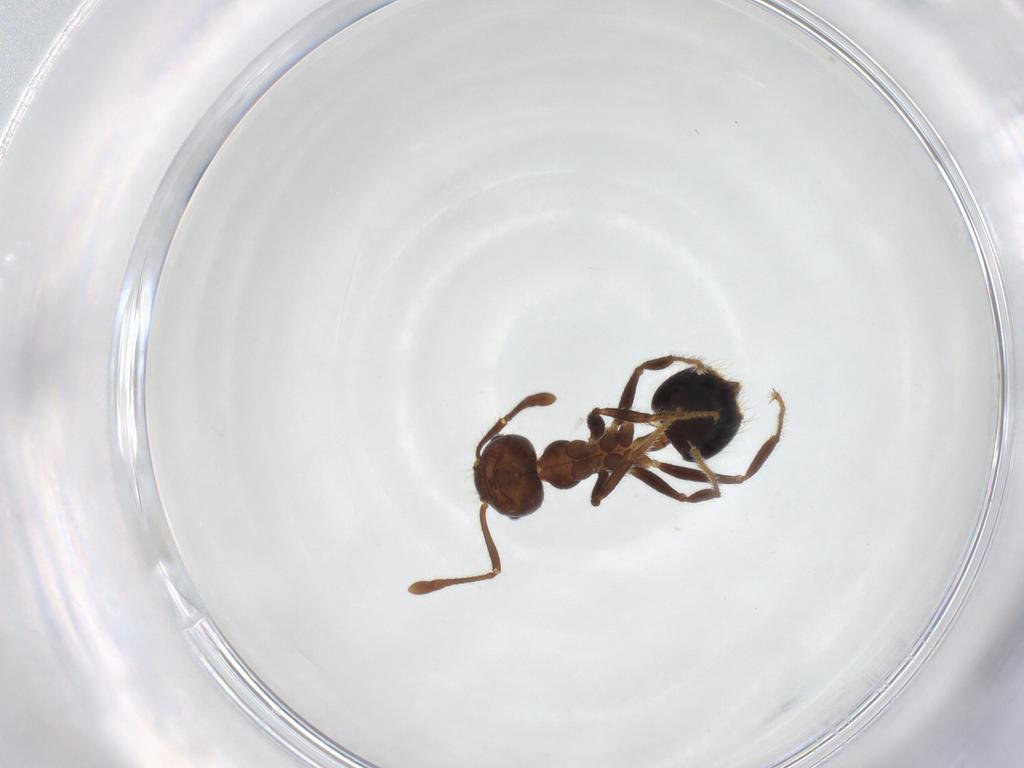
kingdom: Animalia
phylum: Arthropoda
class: Insecta
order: Hymenoptera
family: Formicidae
